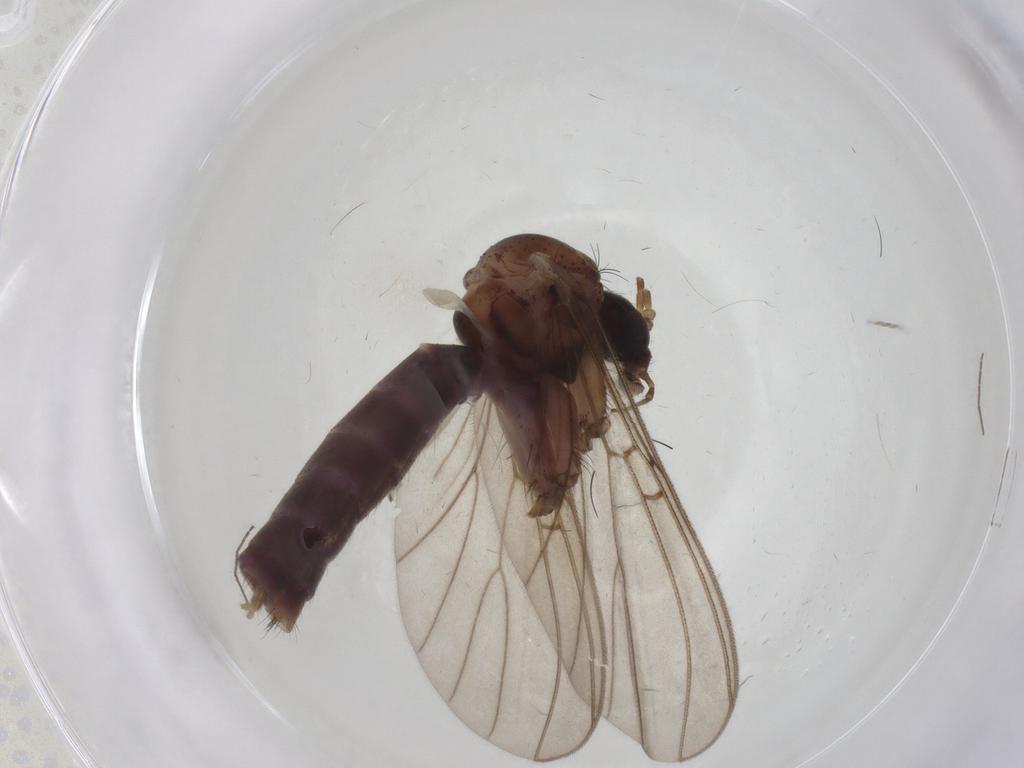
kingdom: Animalia
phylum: Arthropoda
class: Insecta
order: Diptera
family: Mycetophilidae
